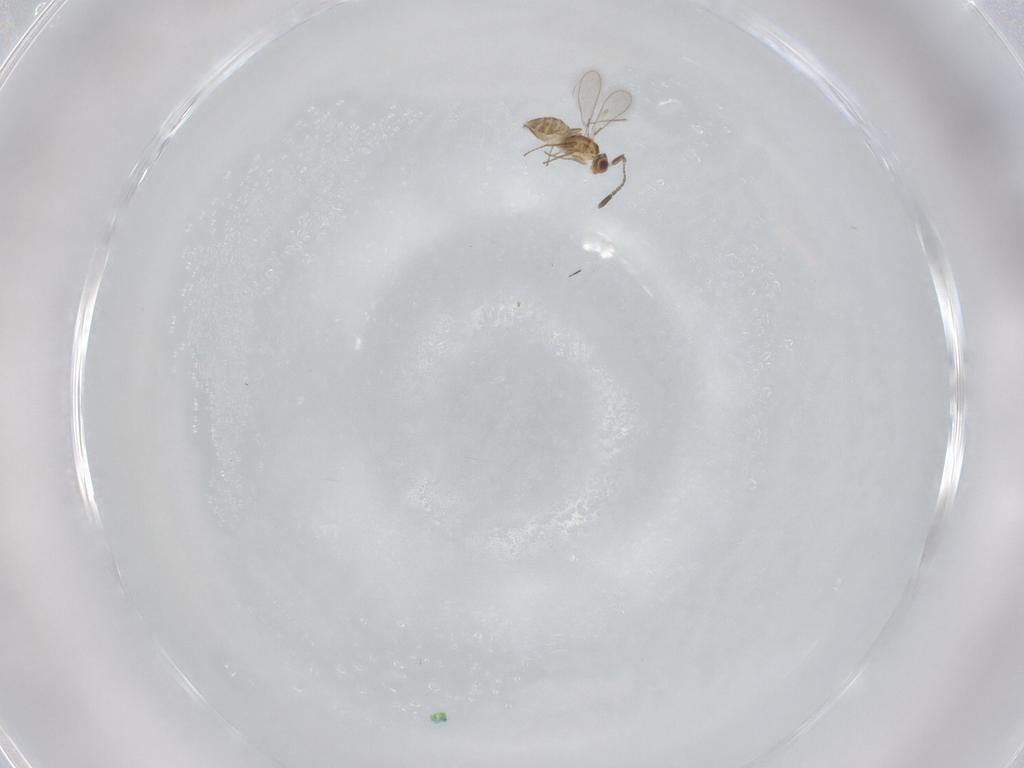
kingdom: Animalia
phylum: Arthropoda
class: Insecta
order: Hymenoptera
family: Mymaridae
